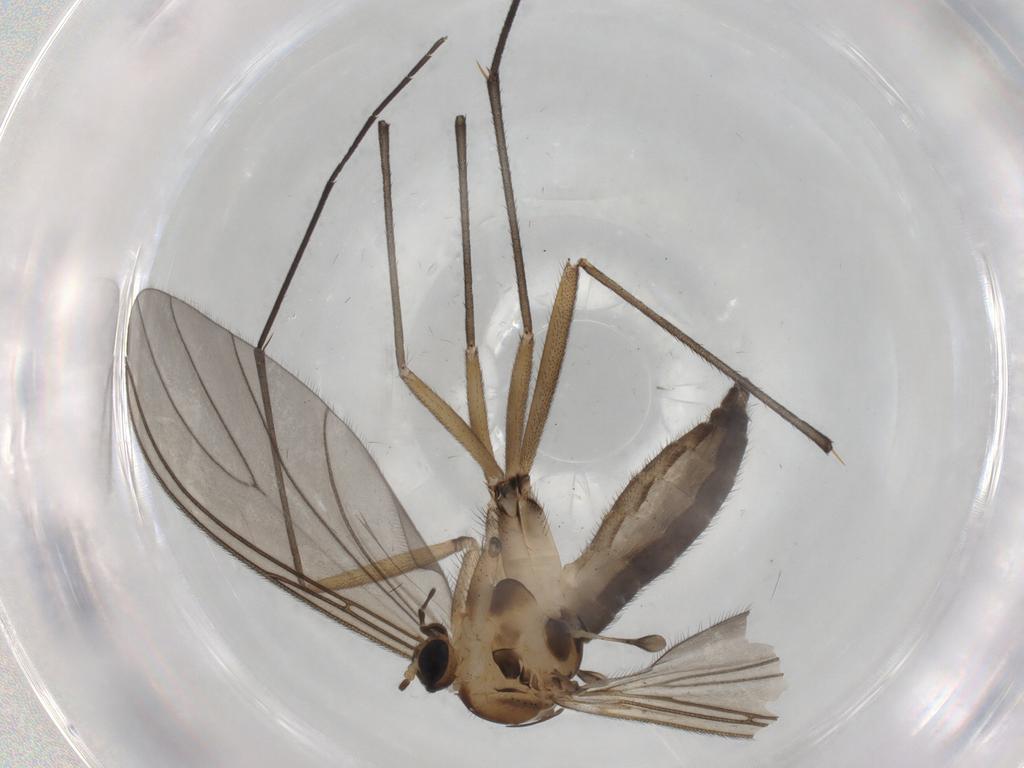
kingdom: Animalia
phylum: Arthropoda
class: Insecta
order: Diptera
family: Sciaridae
